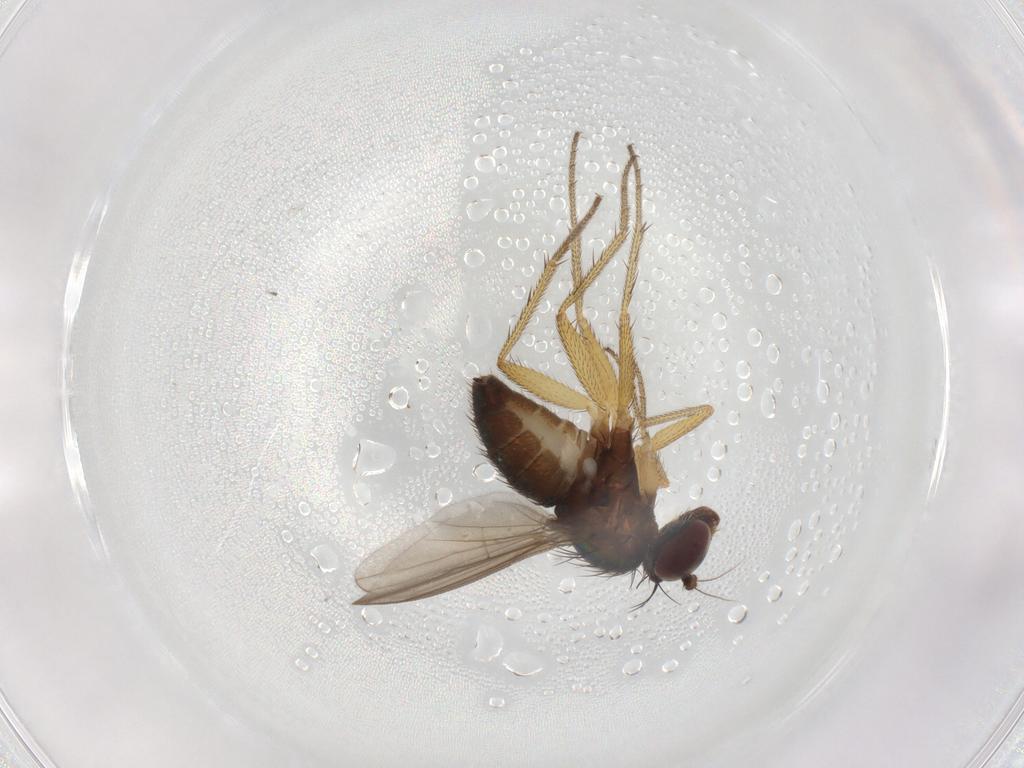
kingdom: Animalia
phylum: Arthropoda
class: Insecta
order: Diptera
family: Dolichopodidae
